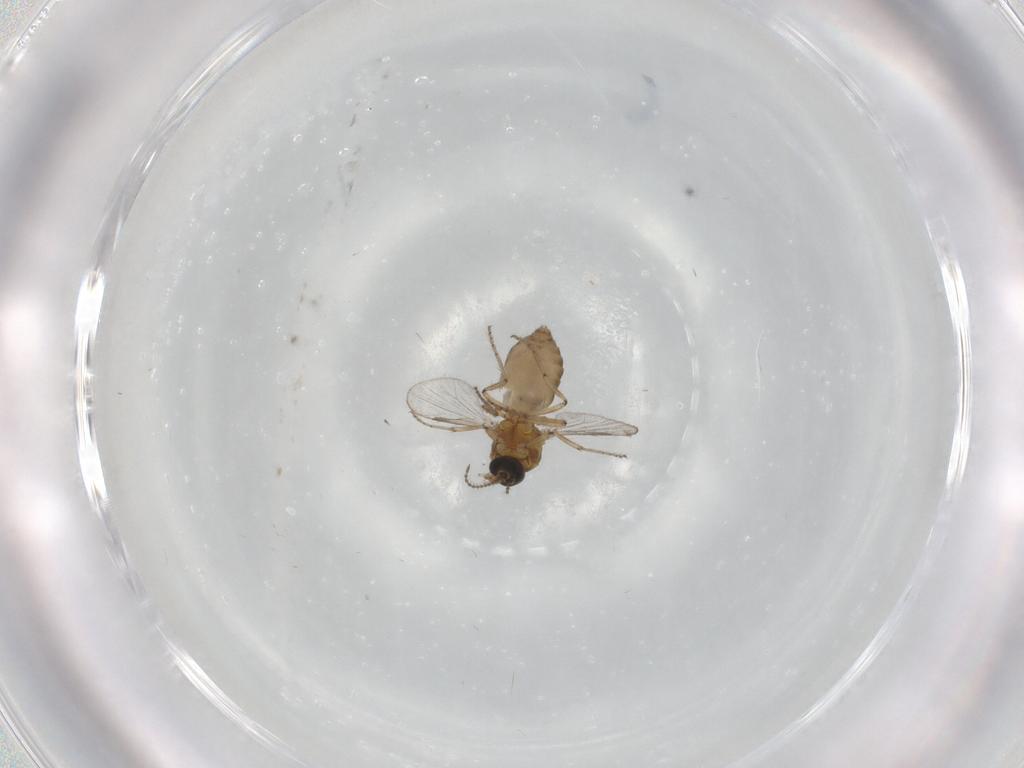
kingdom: Animalia
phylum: Arthropoda
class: Insecta
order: Diptera
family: Ceratopogonidae
